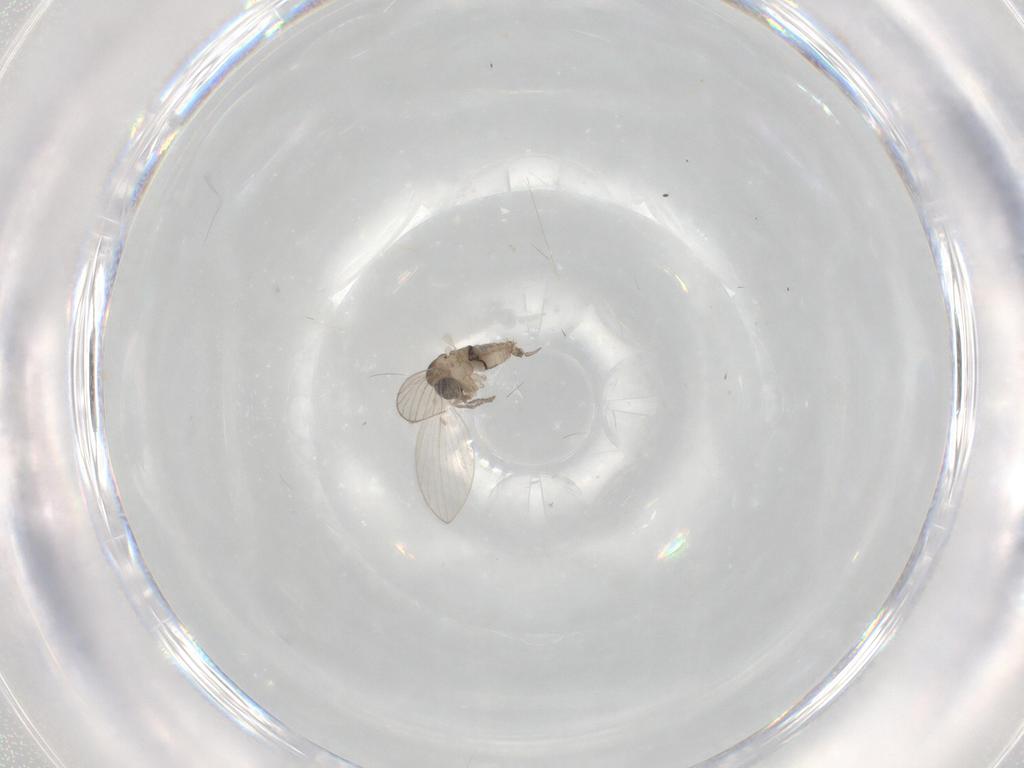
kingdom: Animalia
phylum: Arthropoda
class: Insecta
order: Diptera
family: Psychodidae
